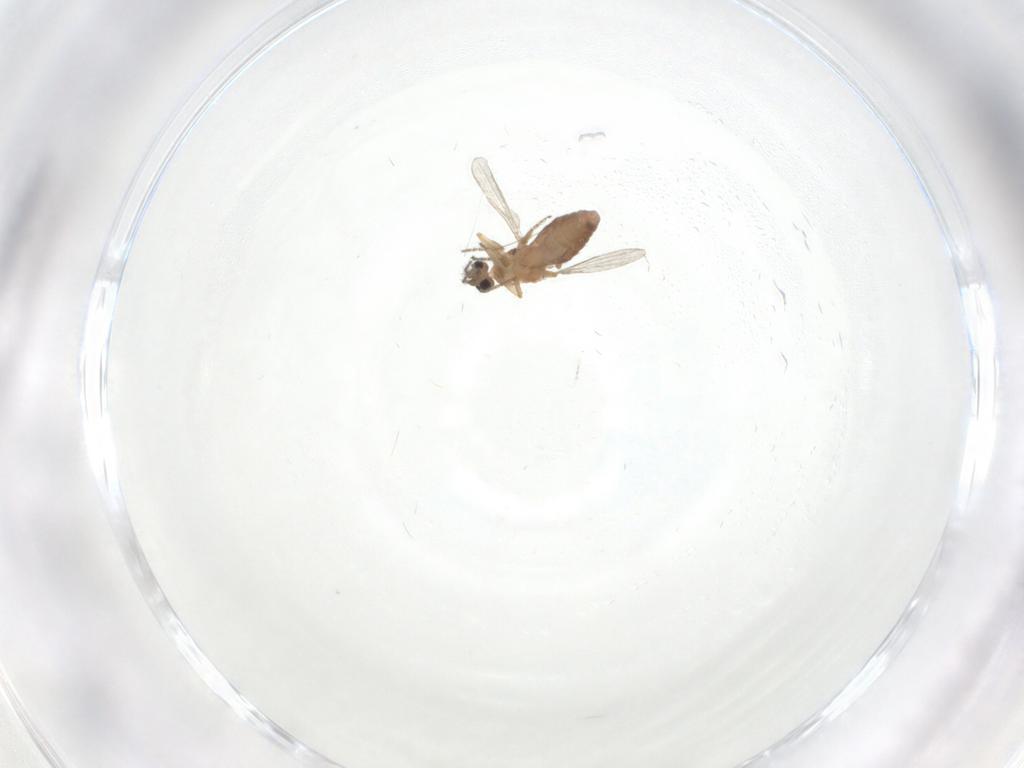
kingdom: Animalia
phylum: Arthropoda
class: Insecta
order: Diptera
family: Ceratopogonidae
